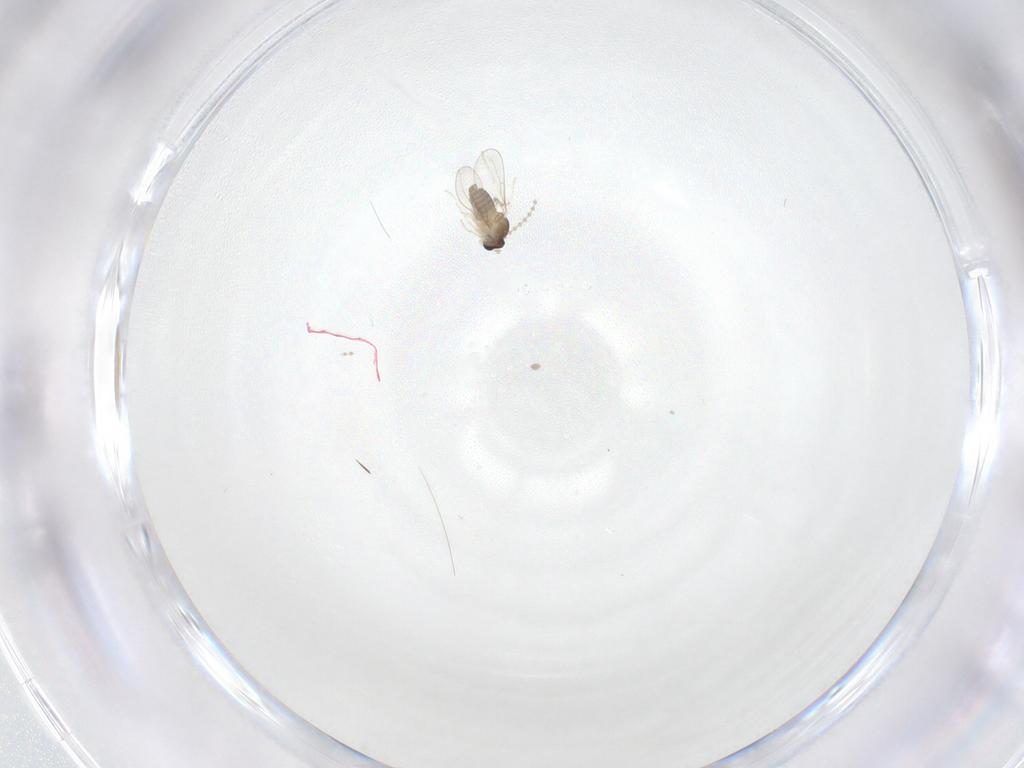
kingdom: Animalia
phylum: Arthropoda
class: Insecta
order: Diptera
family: Cecidomyiidae
